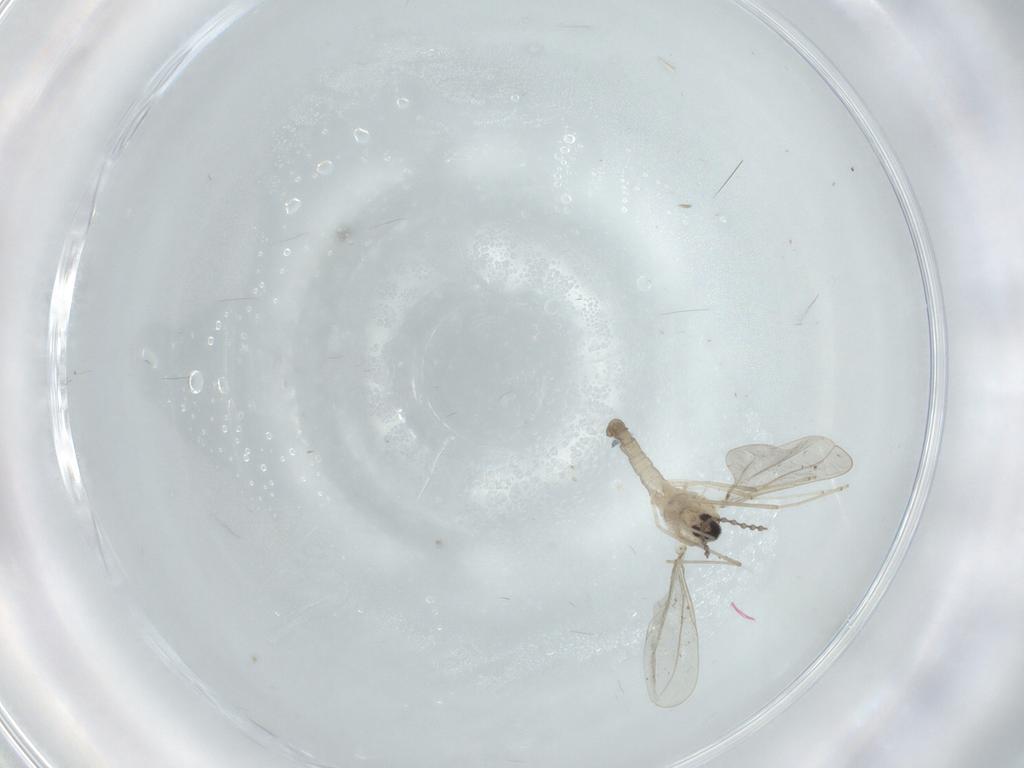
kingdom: Animalia
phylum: Arthropoda
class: Insecta
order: Diptera
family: Cecidomyiidae
